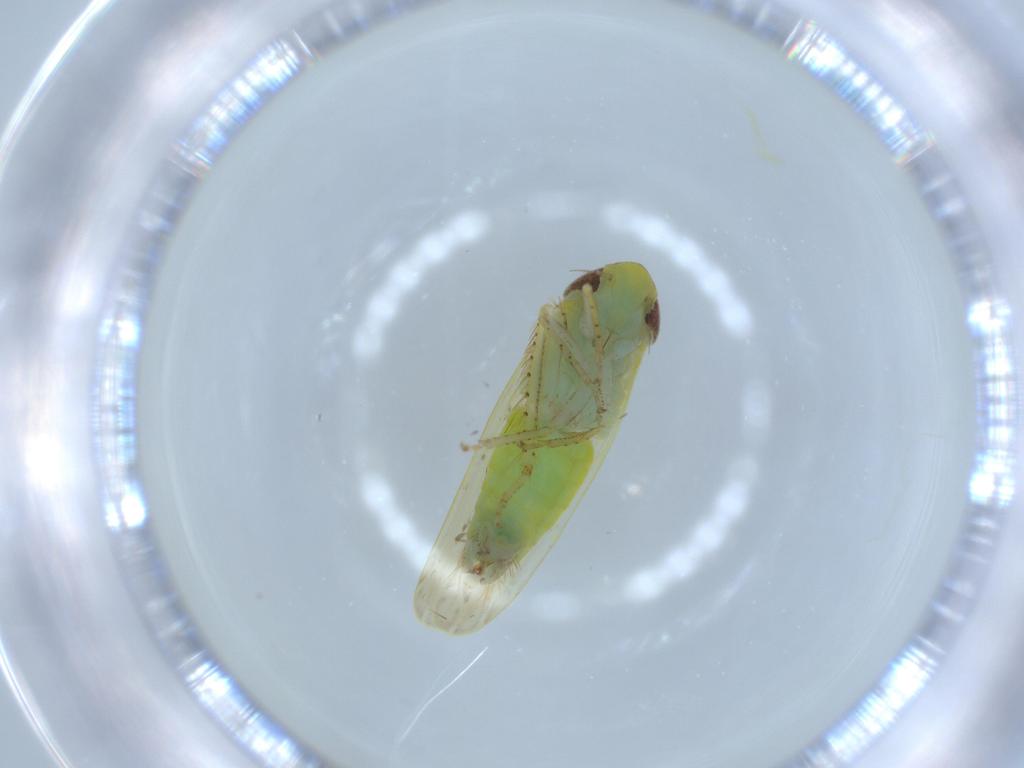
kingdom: Animalia
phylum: Arthropoda
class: Insecta
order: Hemiptera
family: Cicadellidae
